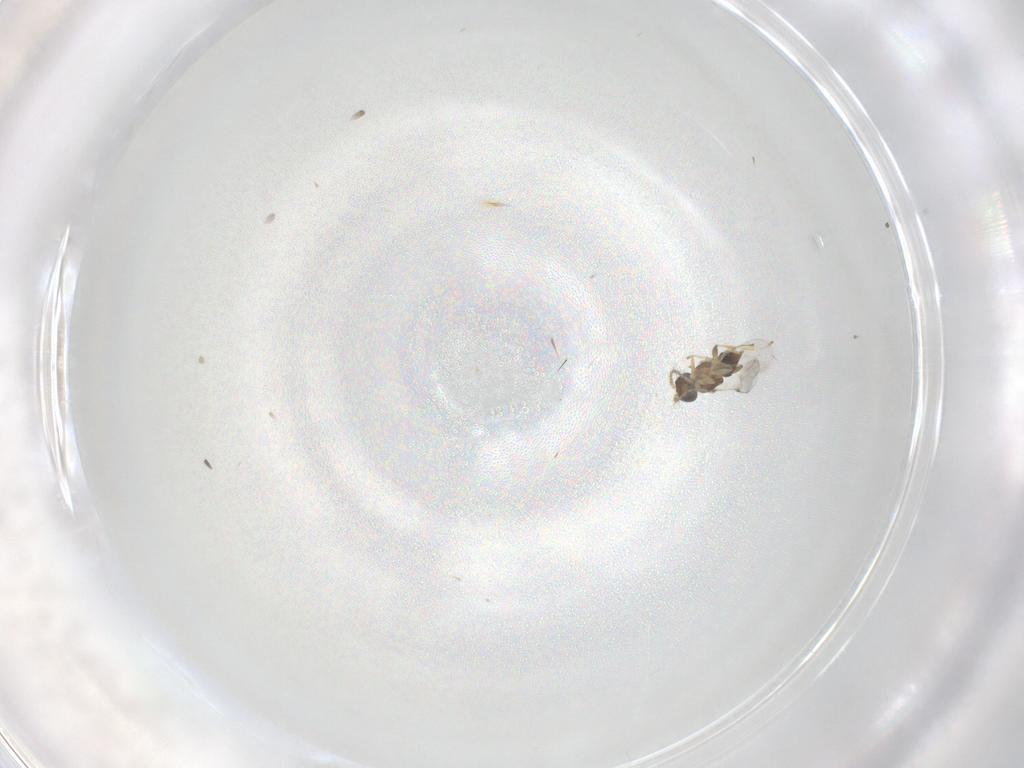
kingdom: Animalia
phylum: Arthropoda
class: Insecta
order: Hymenoptera
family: Encyrtidae
